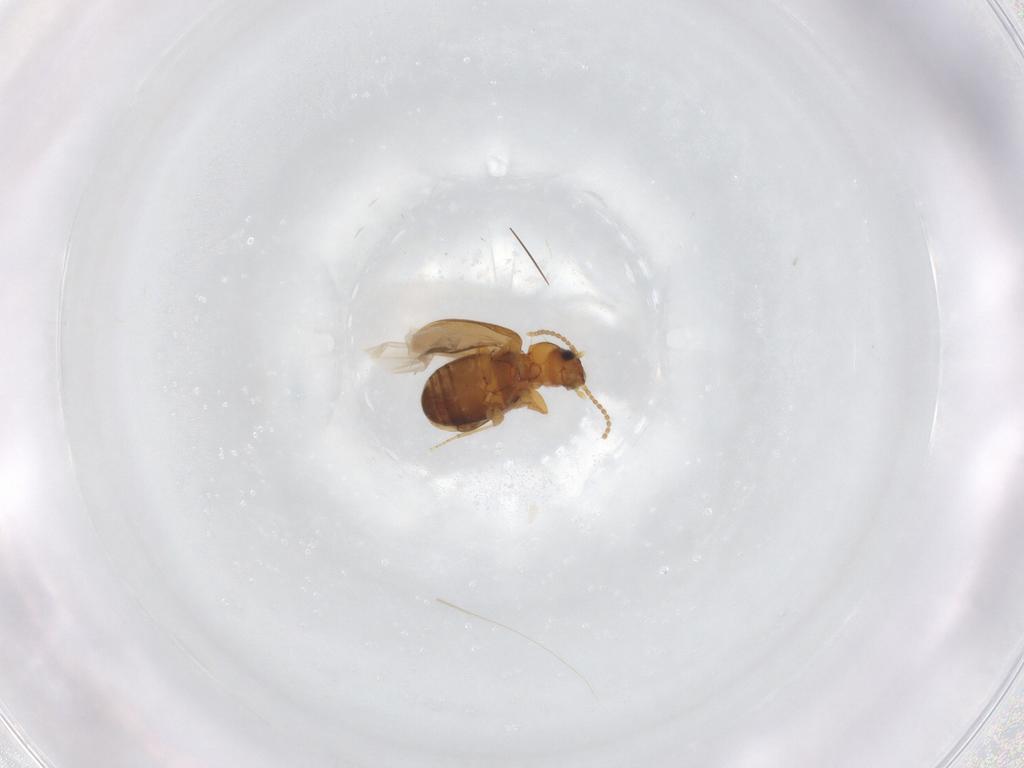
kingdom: Animalia
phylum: Arthropoda
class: Insecta
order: Coleoptera
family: Carabidae
